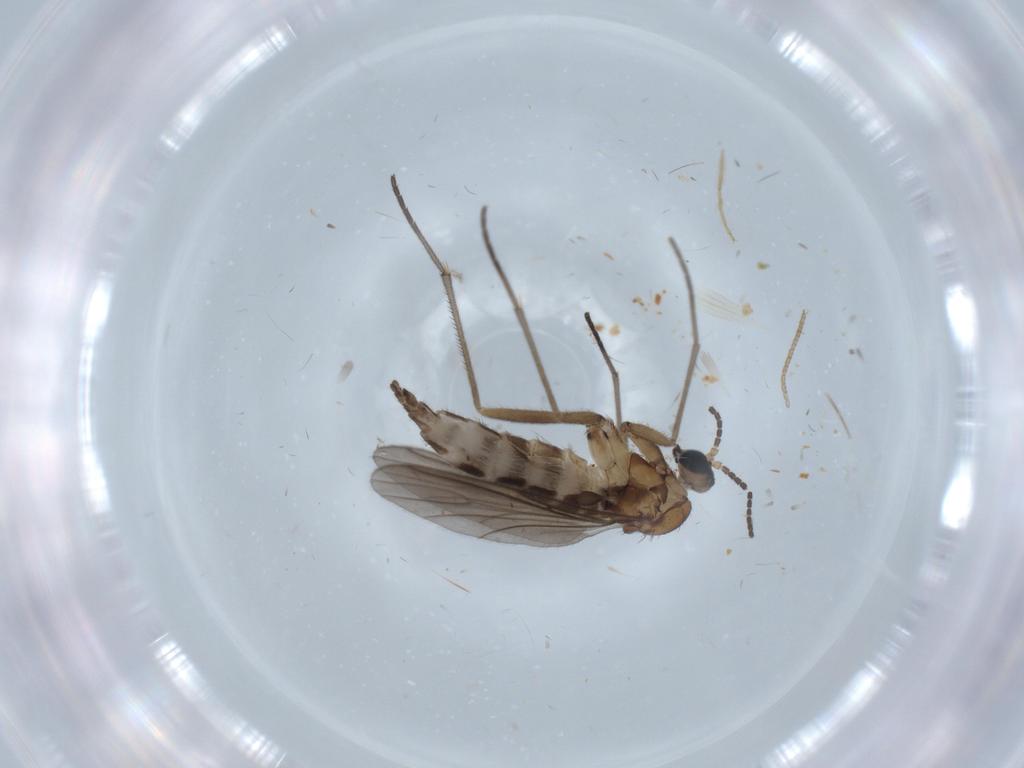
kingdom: Animalia
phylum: Arthropoda
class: Insecta
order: Diptera
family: Sciaridae
